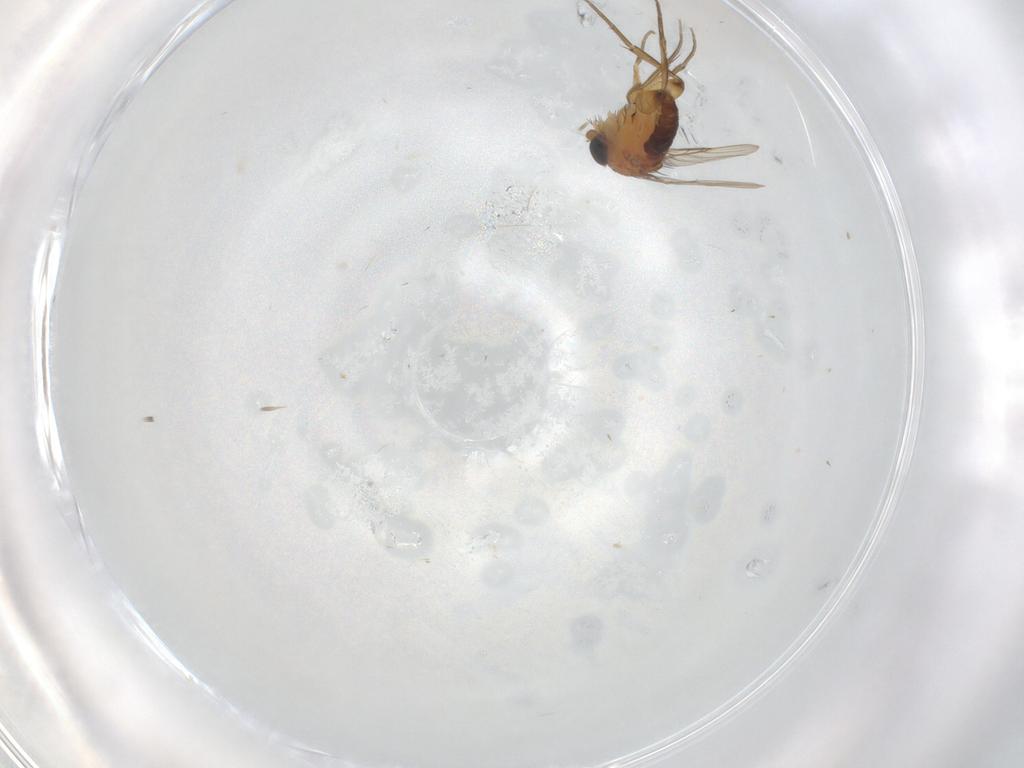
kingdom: Animalia
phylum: Arthropoda
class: Insecta
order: Diptera
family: Phoridae
